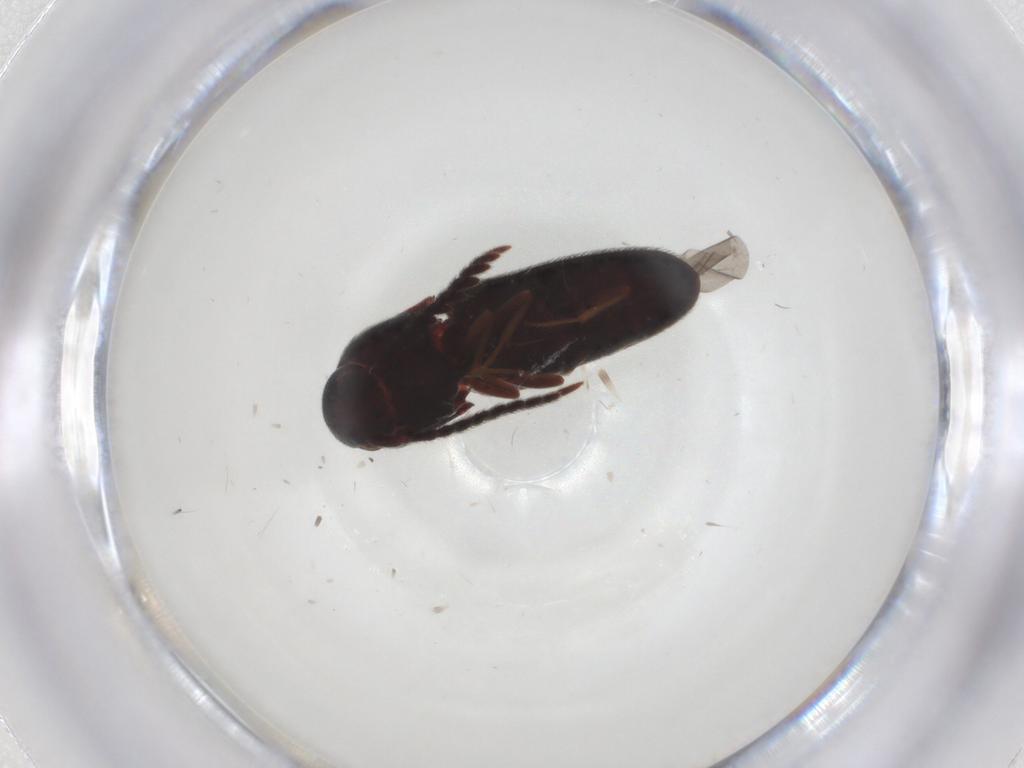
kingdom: Animalia
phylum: Arthropoda
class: Insecta
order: Coleoptera
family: Eucnemidae
